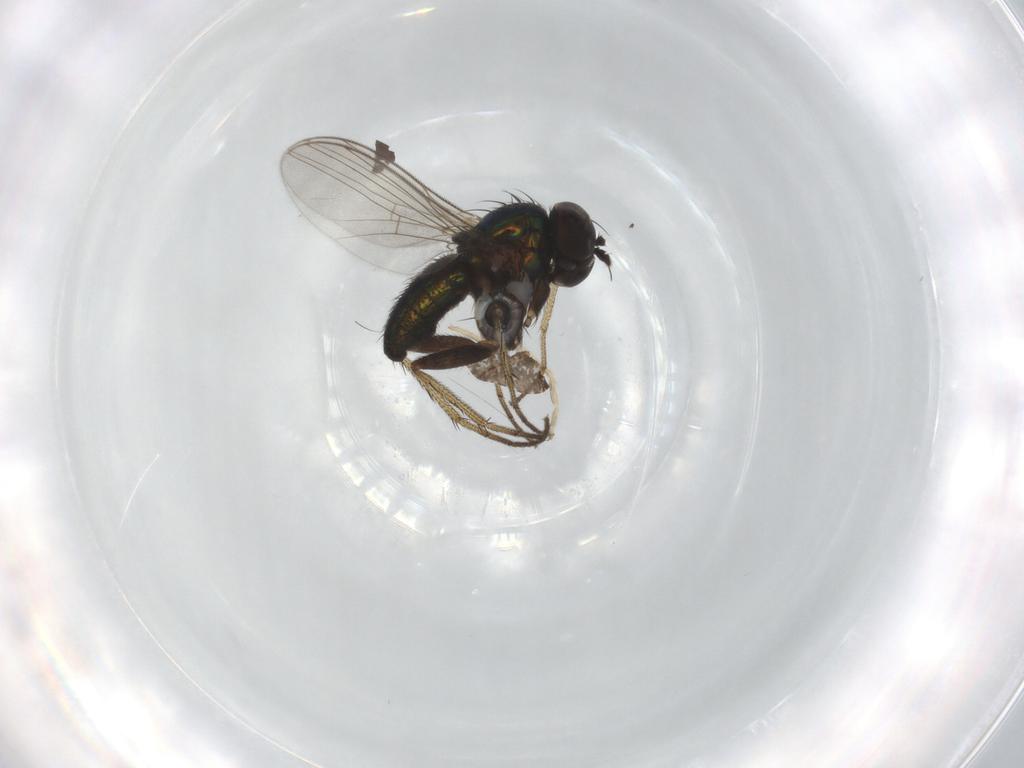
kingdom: Animalia
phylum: Arthropoda
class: Insecta
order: Diptera
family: Dolichopodidae
